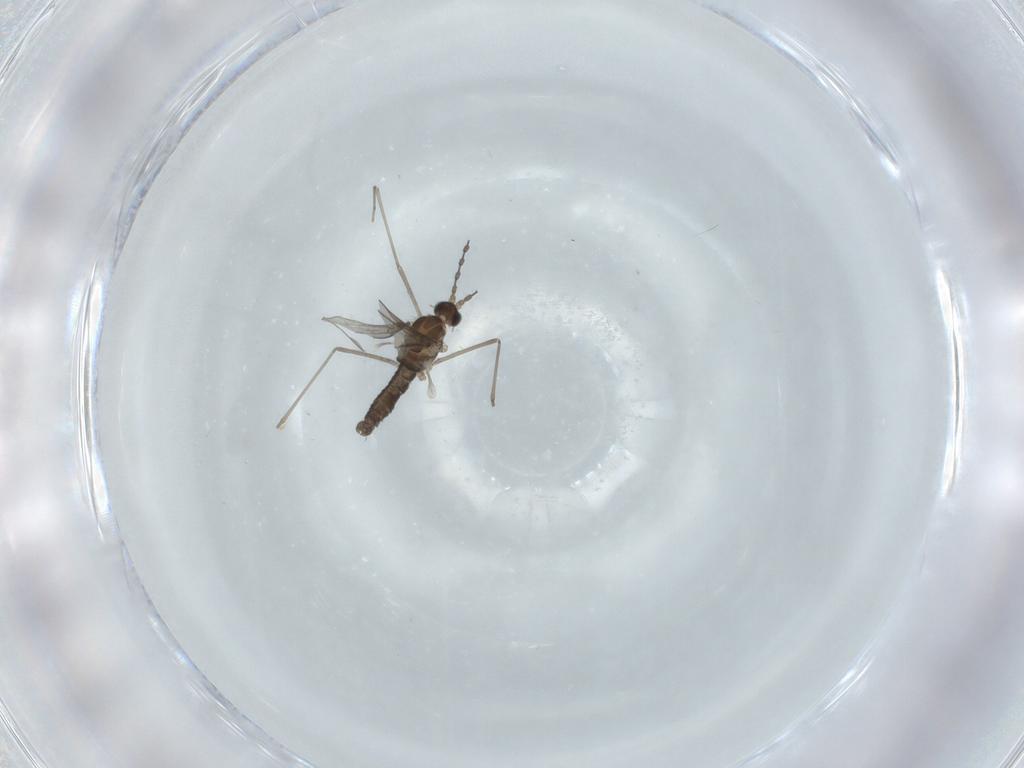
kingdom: Animalia
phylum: Arthropoda
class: Insecta
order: Diptera
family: Cecidomyiidae
